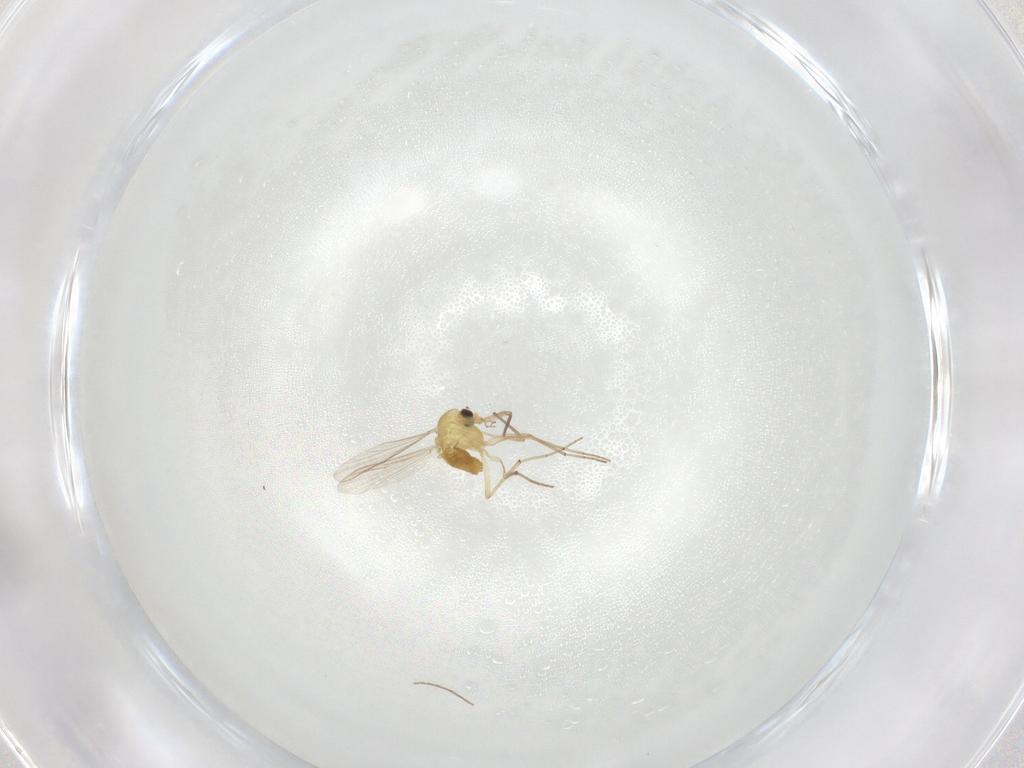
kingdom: Animalia
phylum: Arthropoda
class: Insecta
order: Diptera
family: Chironomidae
